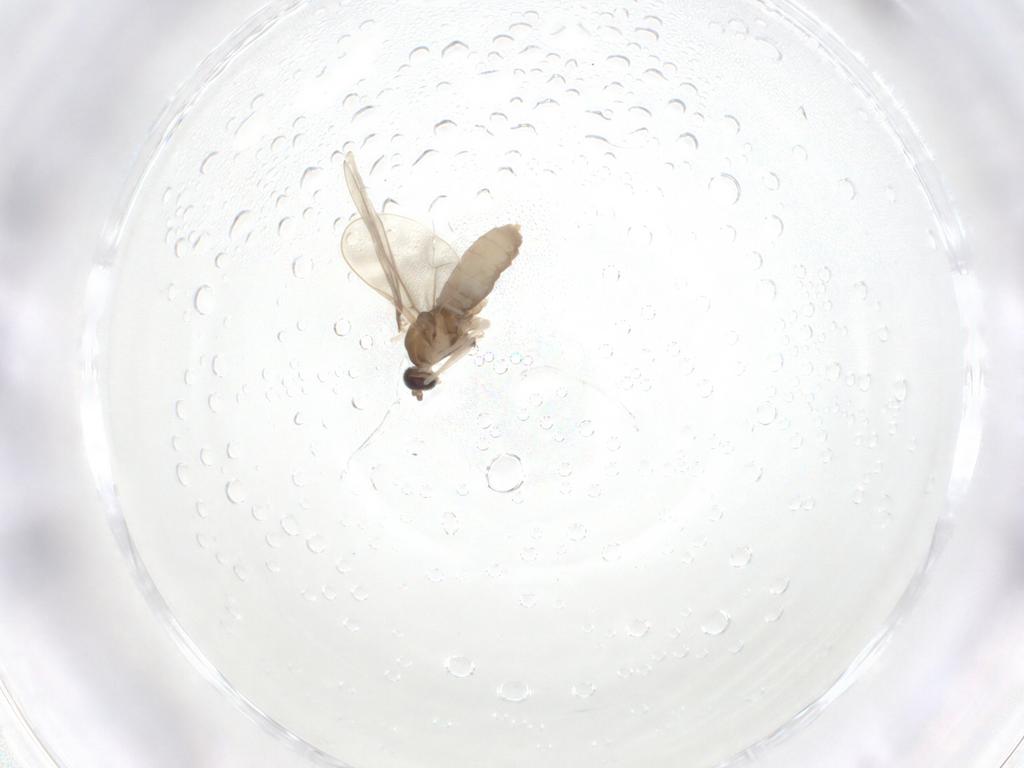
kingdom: Animalia
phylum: Arthropoda
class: Insecta
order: Diptera
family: Cecidomyiidae
